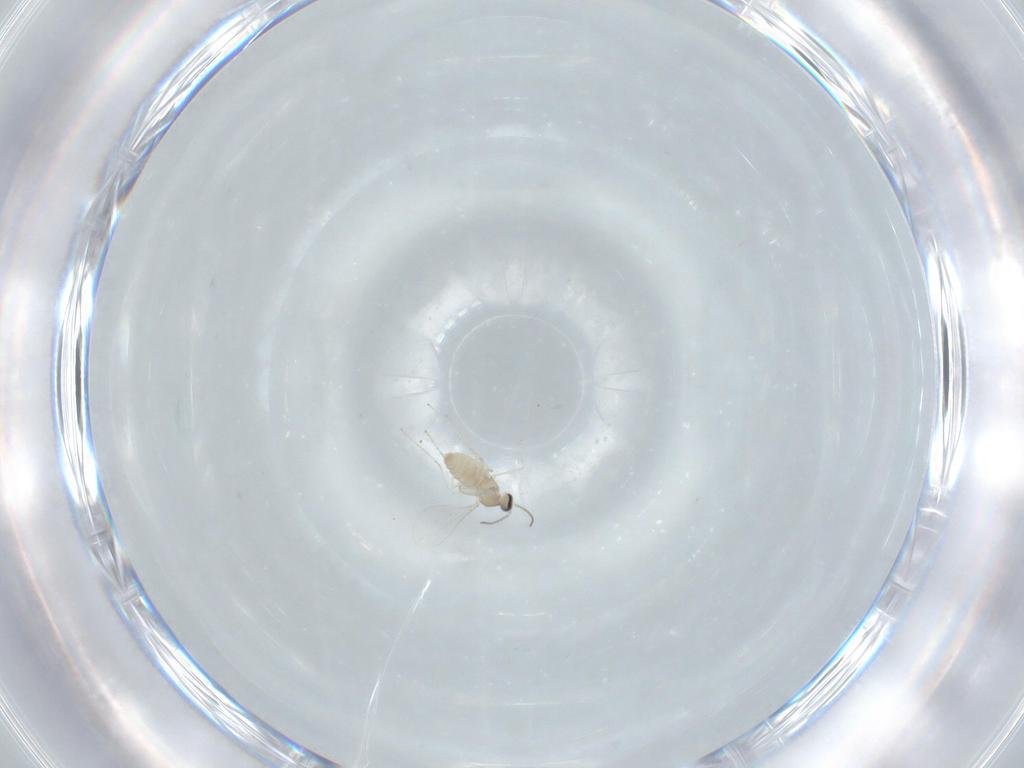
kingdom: Animalia
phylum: Arthropoda
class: Insecta
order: Diptera
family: Cecidomyiidae
